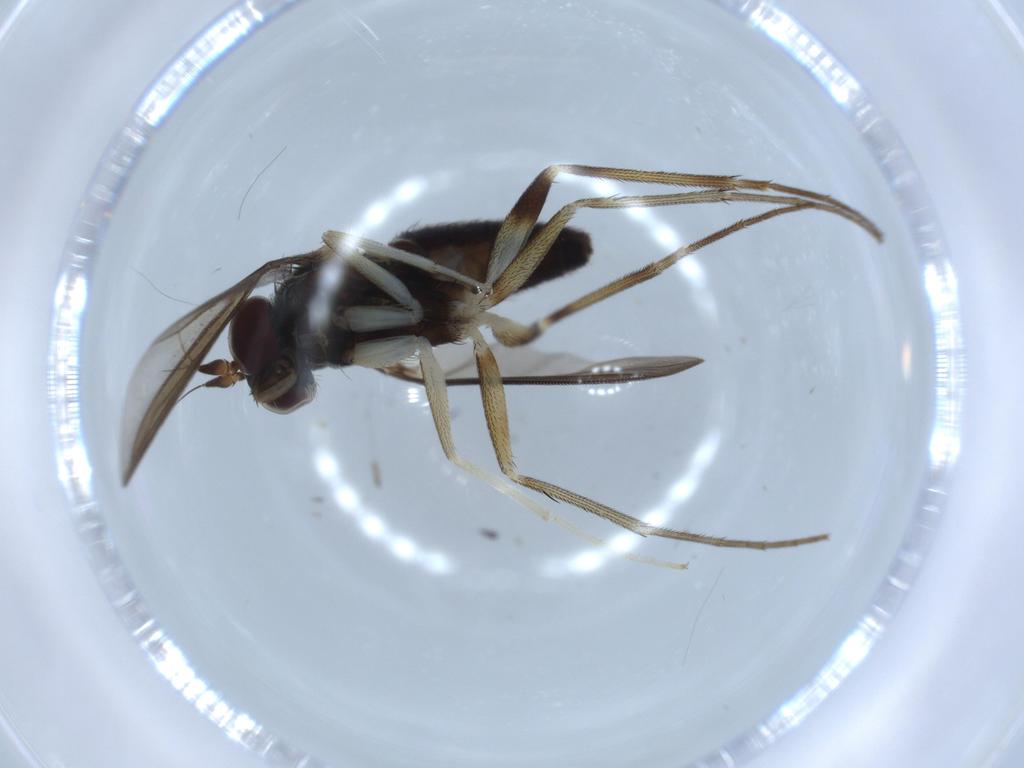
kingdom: Animalia
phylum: Arthropoda
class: Insecta
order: Diptera
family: Clusiidae
